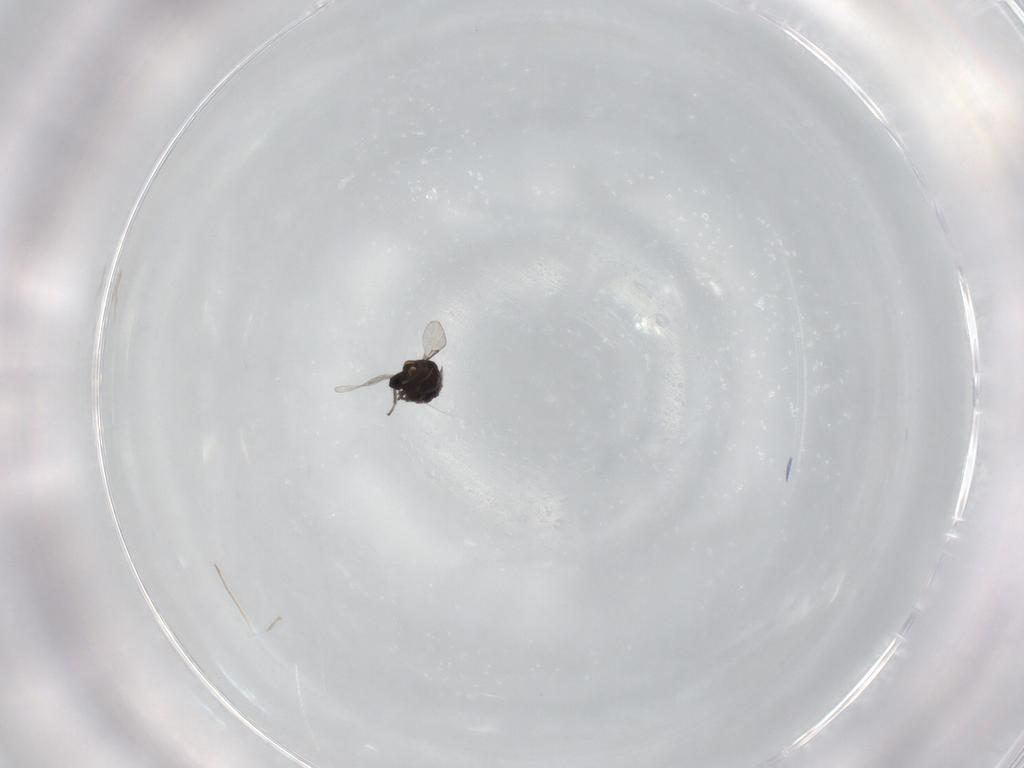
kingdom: Animalia
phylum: Arthropoda
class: Insecta
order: Diptera
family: Ceratopogonidae
